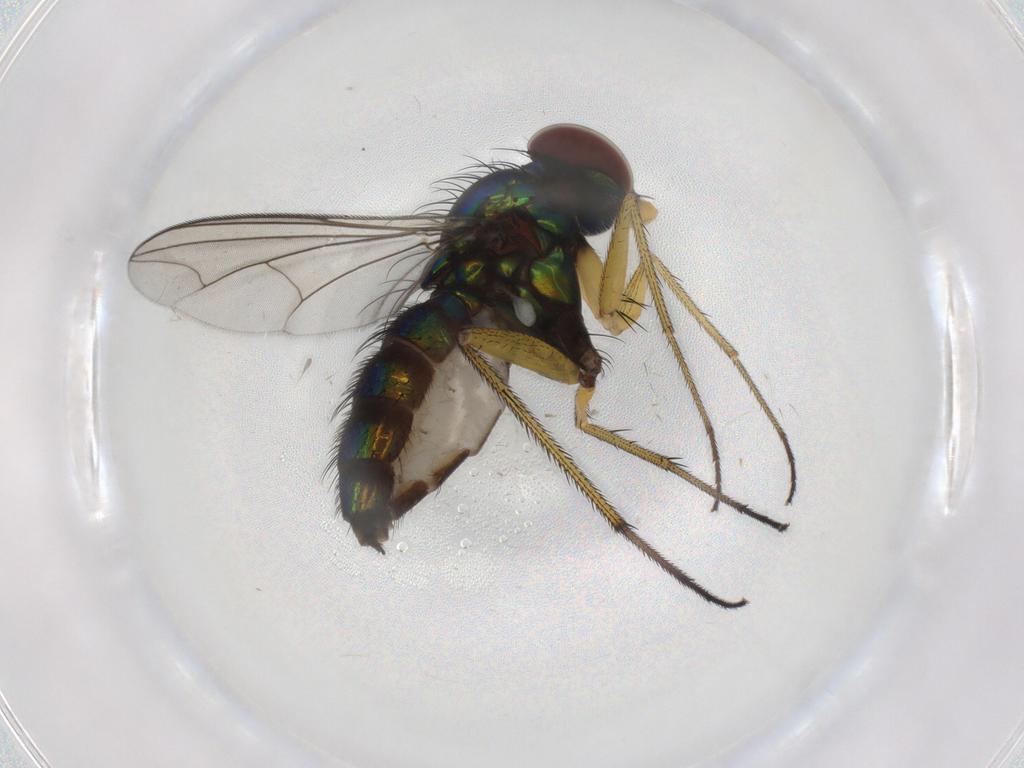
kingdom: Animalia
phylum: Arthropoda
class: Insecta
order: Diptera
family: Dolichopodidae
